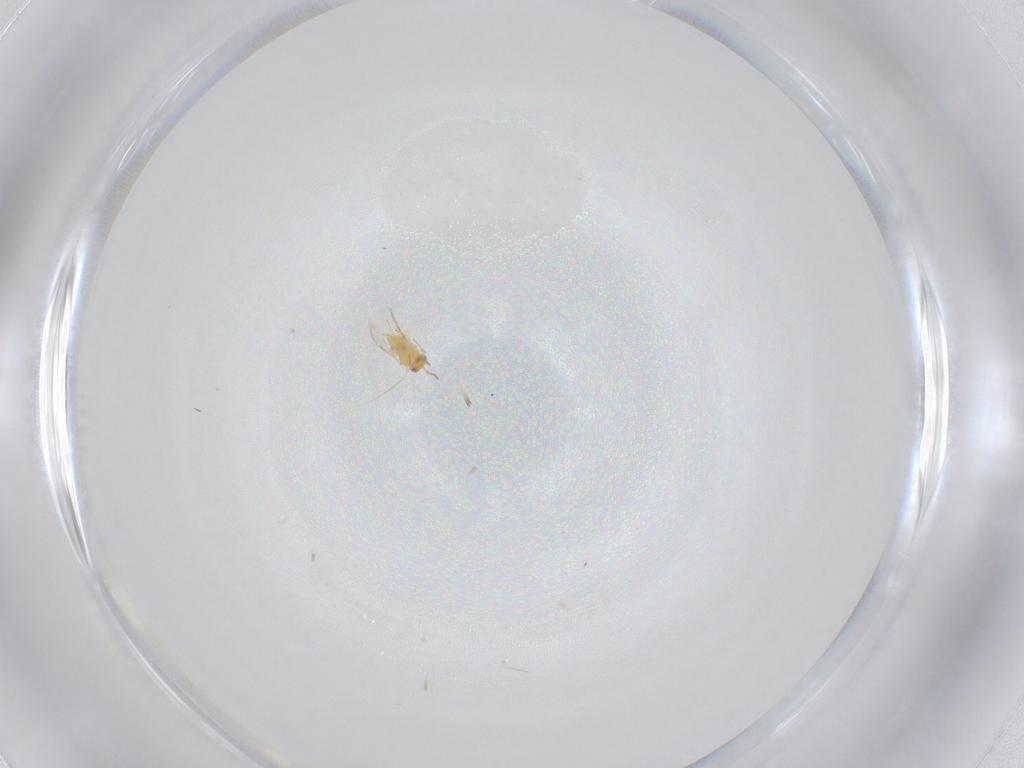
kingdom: Animalia
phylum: Arthropoda
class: Insecta
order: Hymenoptera
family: Aphelinidae
